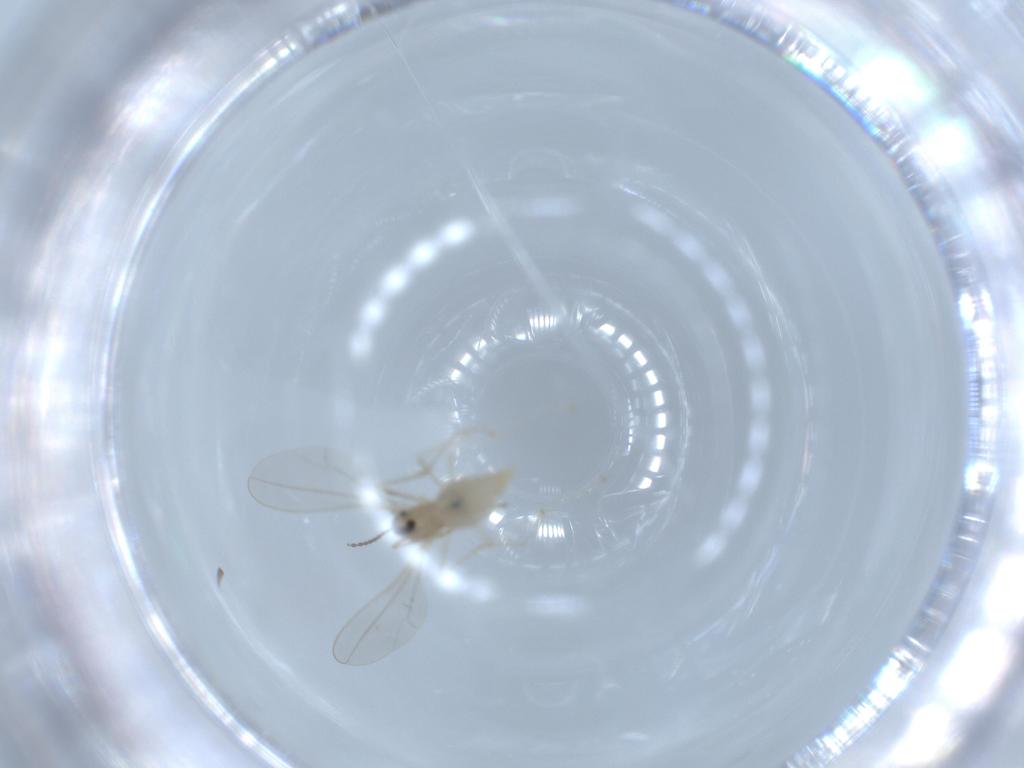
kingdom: Animalia
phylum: Arthropoda
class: Insecta
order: Diptera
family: Cecidomyiidae
